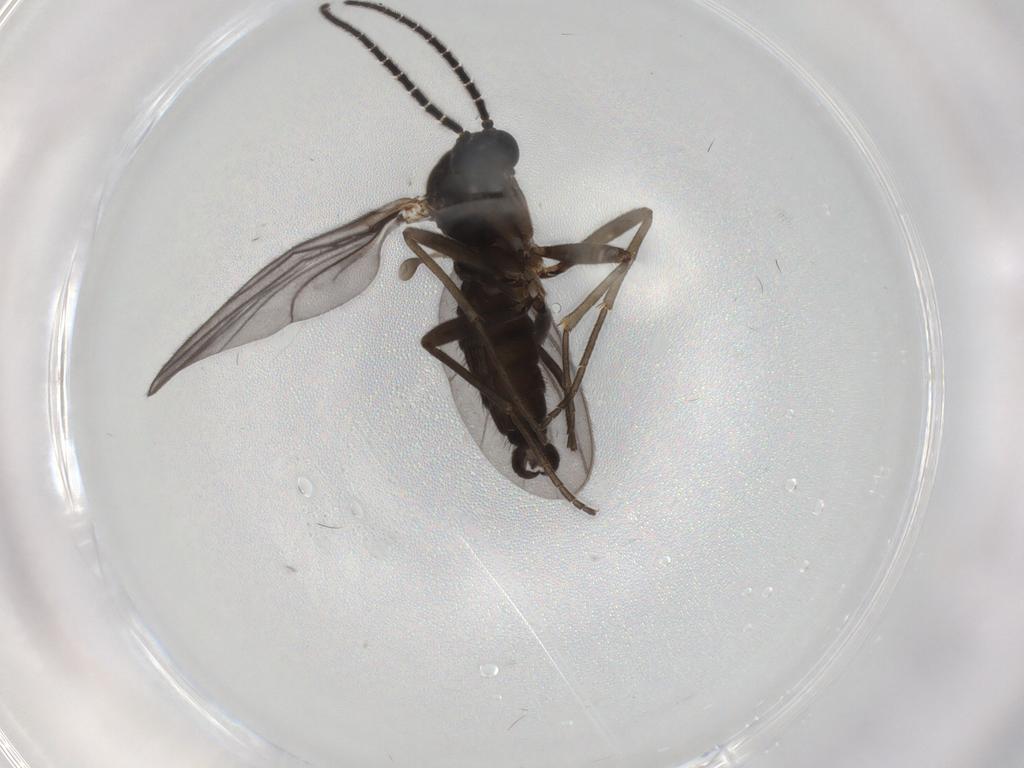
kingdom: Animalia
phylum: Arthropoda
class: Insecta
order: Diptera
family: Sciaridae
